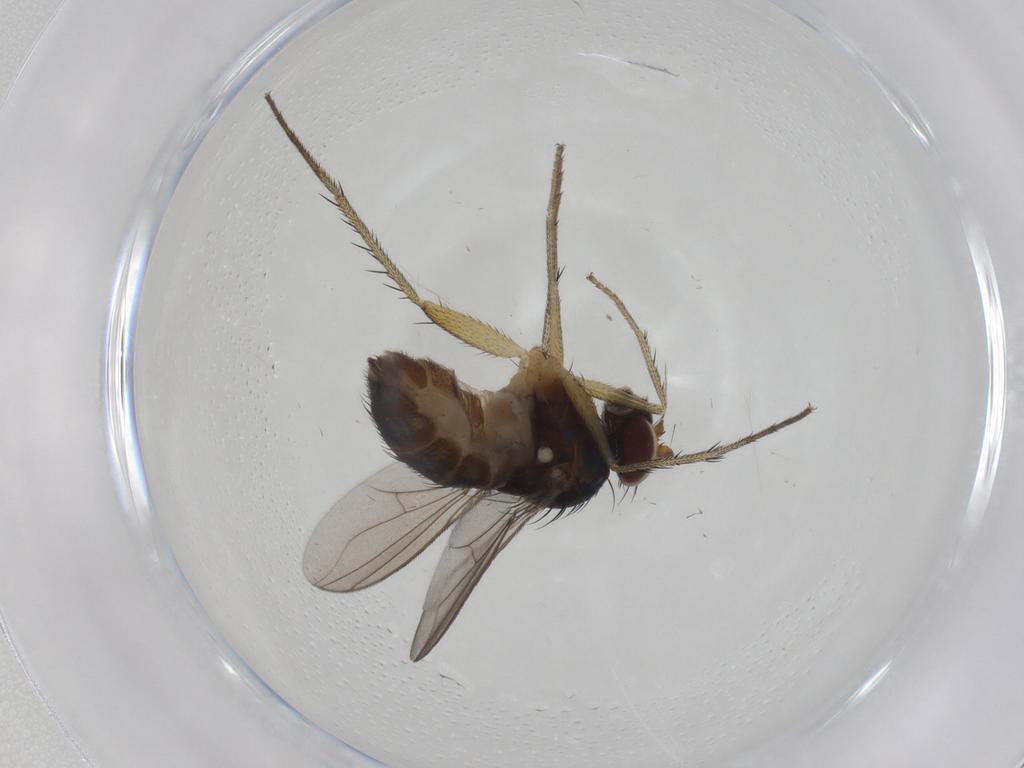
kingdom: Animalia
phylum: Arthropoda
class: Insecta
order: Diptera
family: Dolichopodidae
